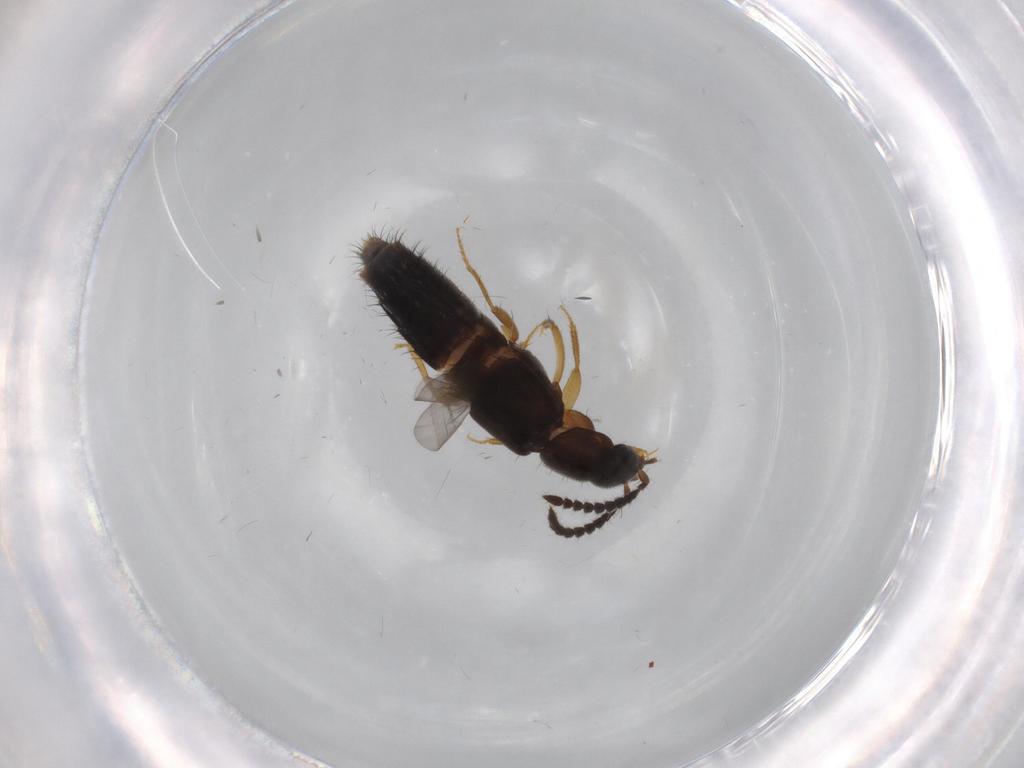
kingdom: Animalia
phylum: Arthropoda
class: Insecta
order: Coleoptera
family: Staphylinidae
